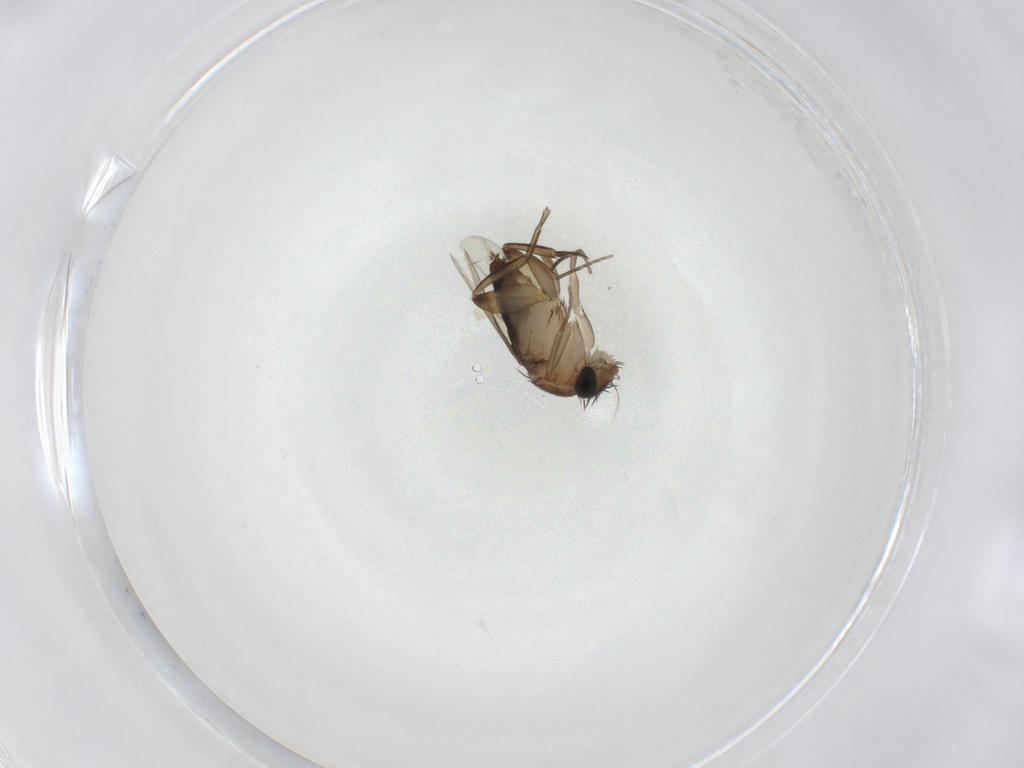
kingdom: Animalia
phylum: Arthropoda
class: Insecta
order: Diptera
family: Phoridae
